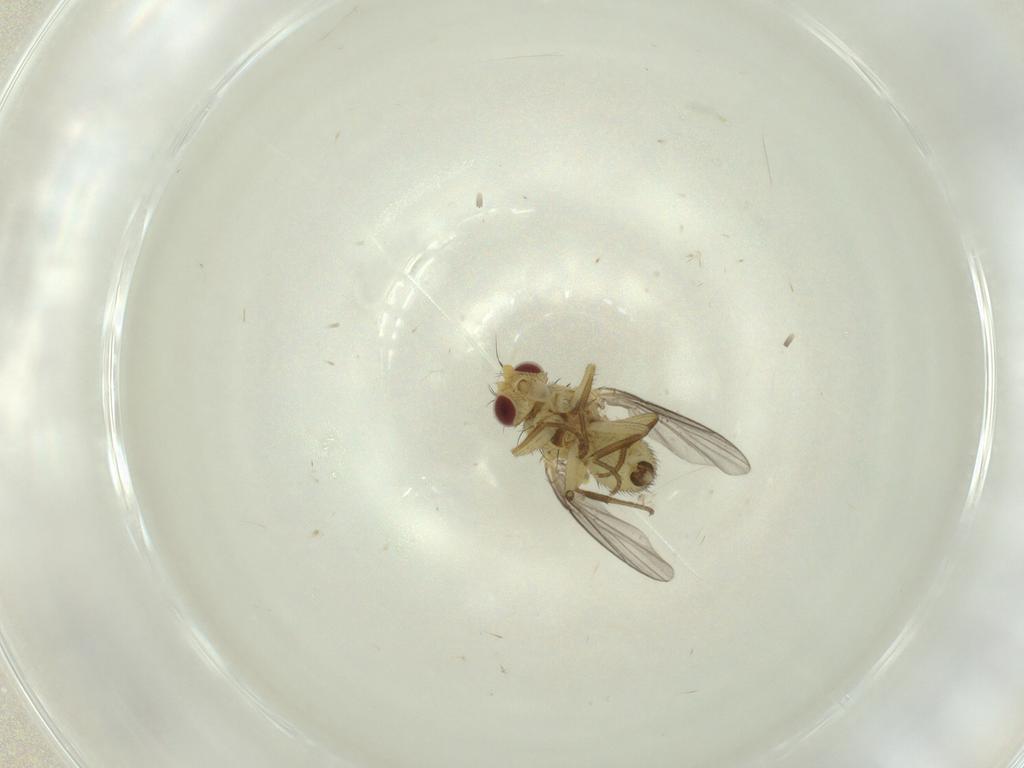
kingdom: Animalia
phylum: Arthropoda
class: Insecta
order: Diptera
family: Agromyzidae
